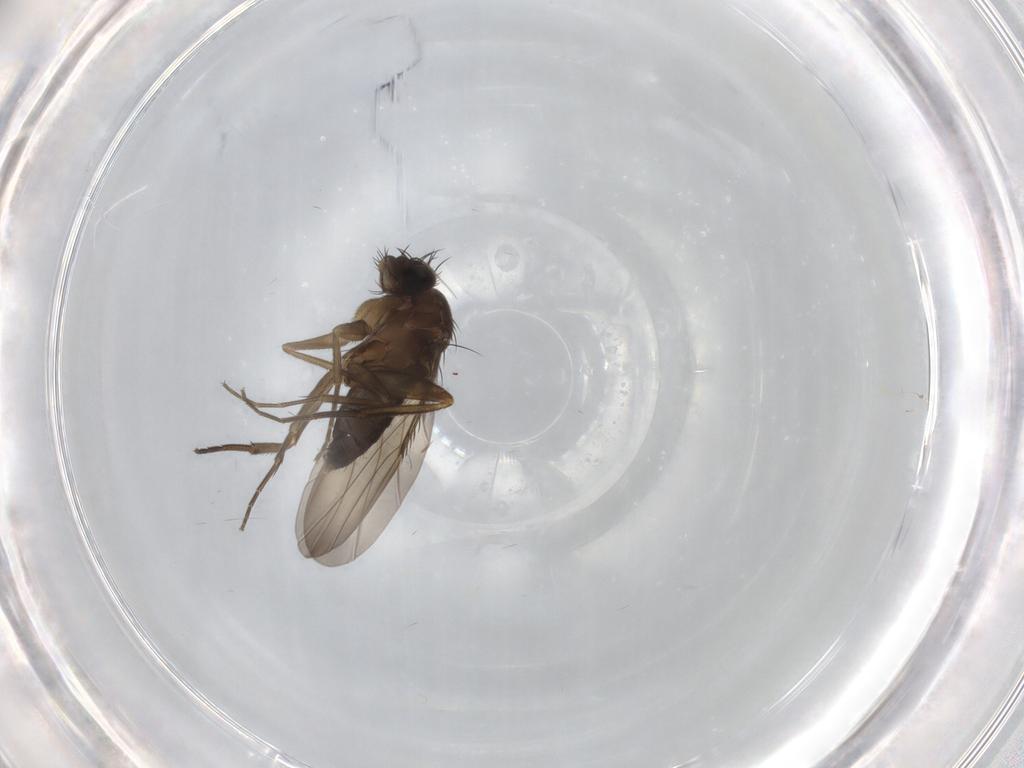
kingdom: Animalia
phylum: Arthropoda
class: Insecta
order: Diptera
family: Phoridae
